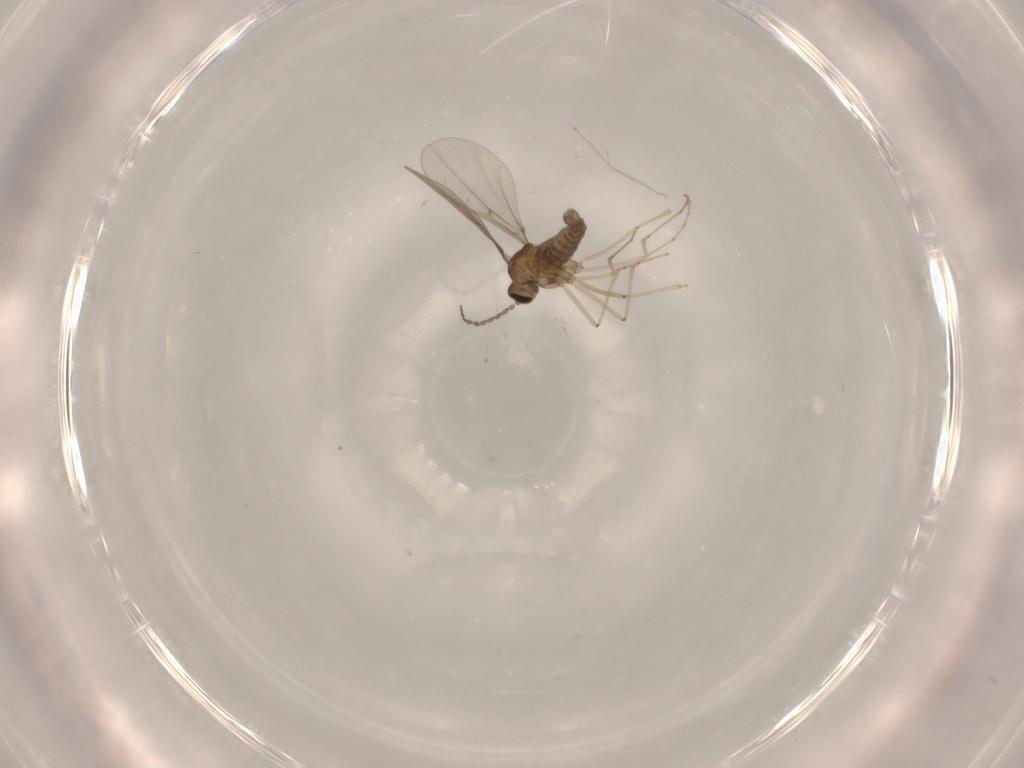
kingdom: Animalia
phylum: Arthropoda
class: Insecta
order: Diptera
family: Cecidomyiidae
